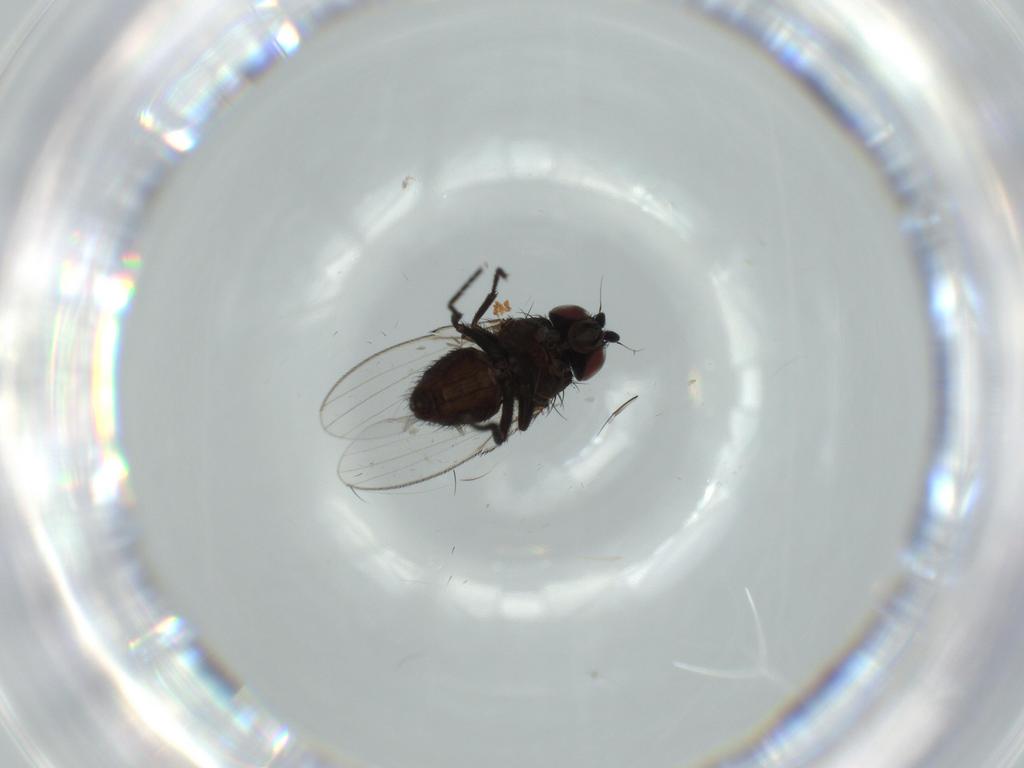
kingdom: Animalia
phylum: Arthropoda
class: Insecta
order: Diptera
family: Milichiidae
